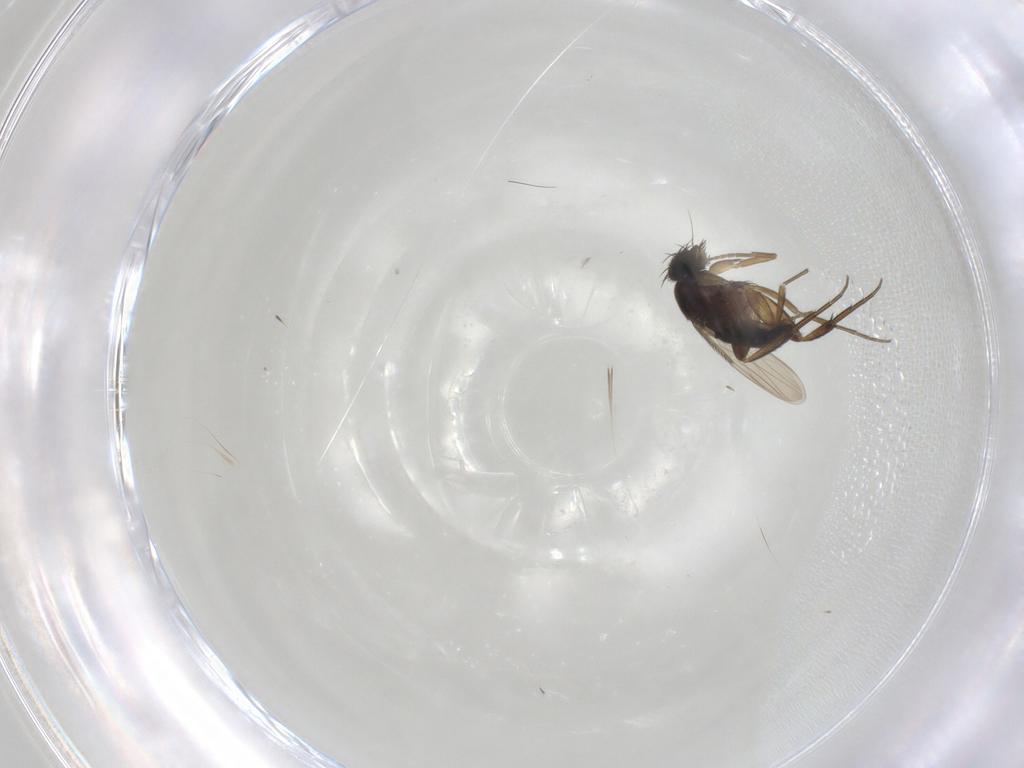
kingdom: Animalia
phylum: Arthropoda
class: Insecta
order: Diptera
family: Phoridae
